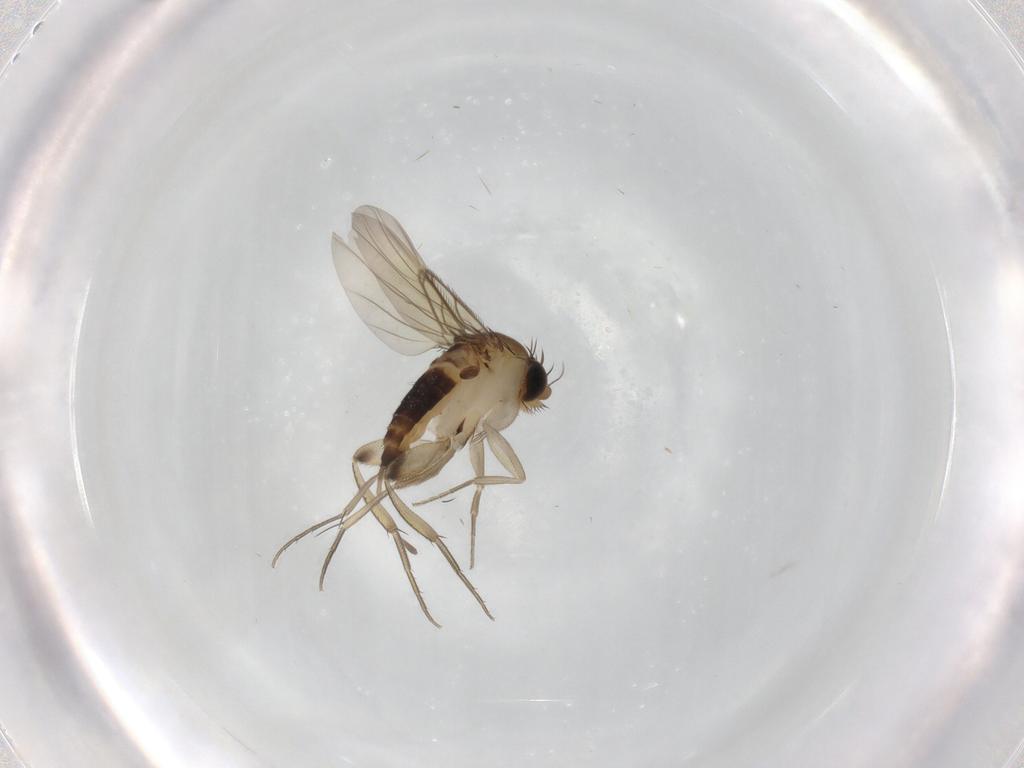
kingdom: Animalia
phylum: Arthropoda
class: Insecta
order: Diptera
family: Phoridae
